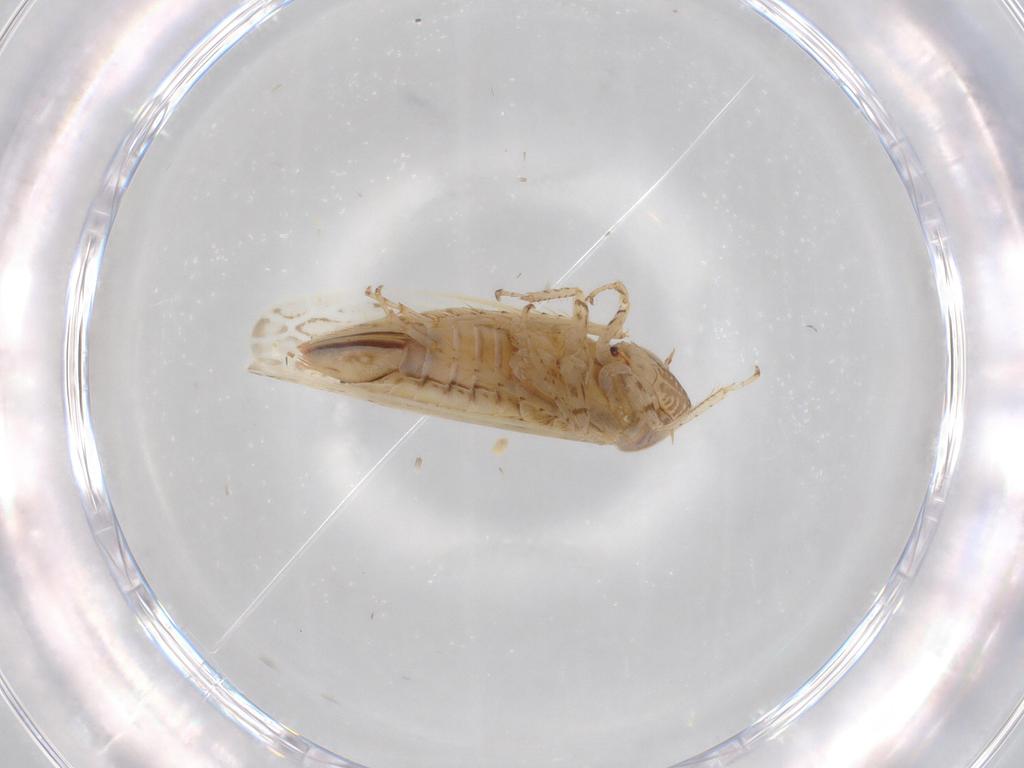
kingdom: Animalia
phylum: Arthropoda
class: Insecta
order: Hemiptera
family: Cicadellidae
